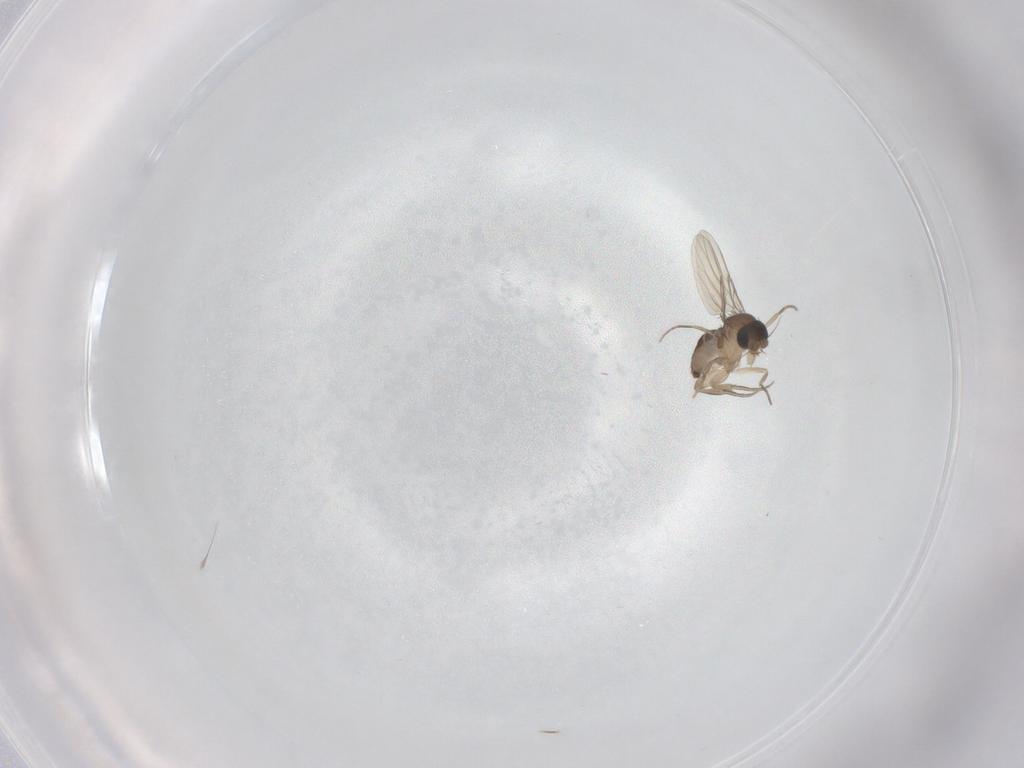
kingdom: Animalia
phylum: Arthropoda
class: Insecta
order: Diptera
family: Phoridae
